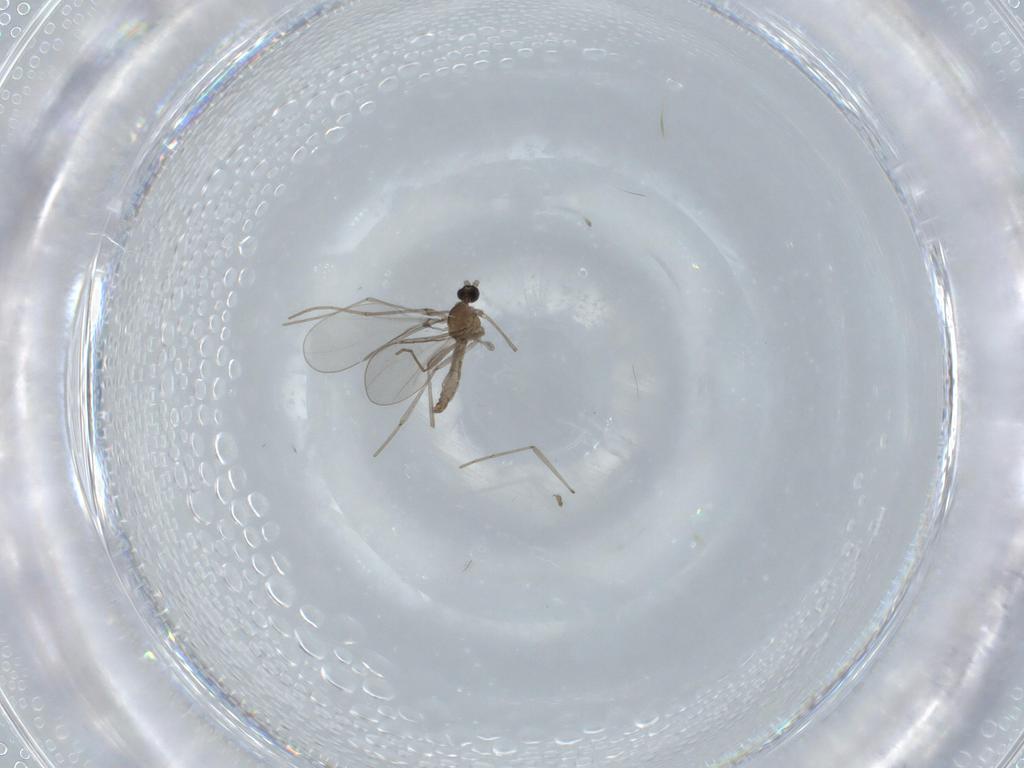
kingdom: Animalia
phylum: Arthropoda
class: Insecta
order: Diptera
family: Cecidomyiidae
